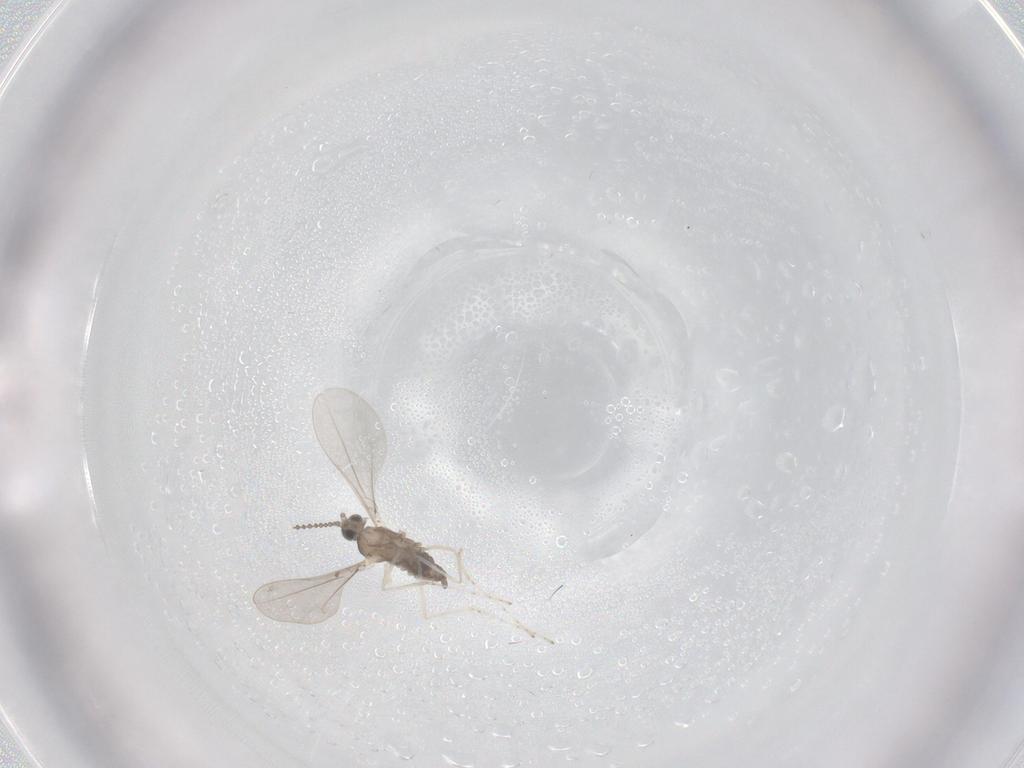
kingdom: Animalia
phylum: Arthropoda
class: Insecta
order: Diptera
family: Cecidomyiidae
